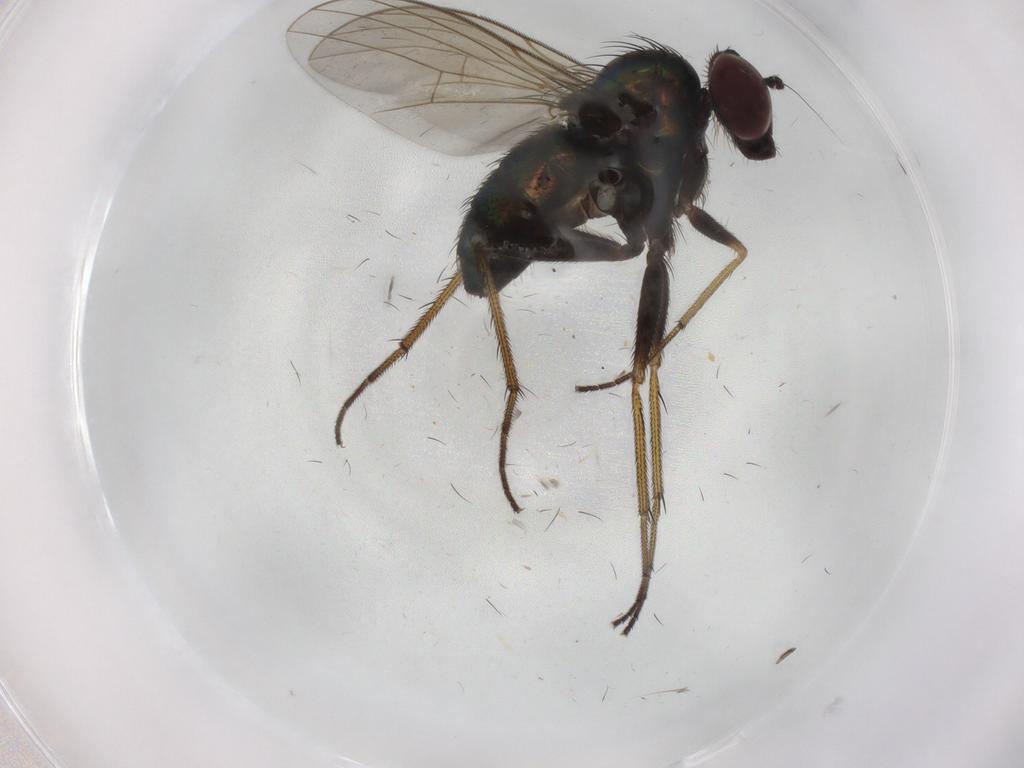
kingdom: Animalia
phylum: Arthropoda
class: Insecta
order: Diptera
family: Dolichopodidae
